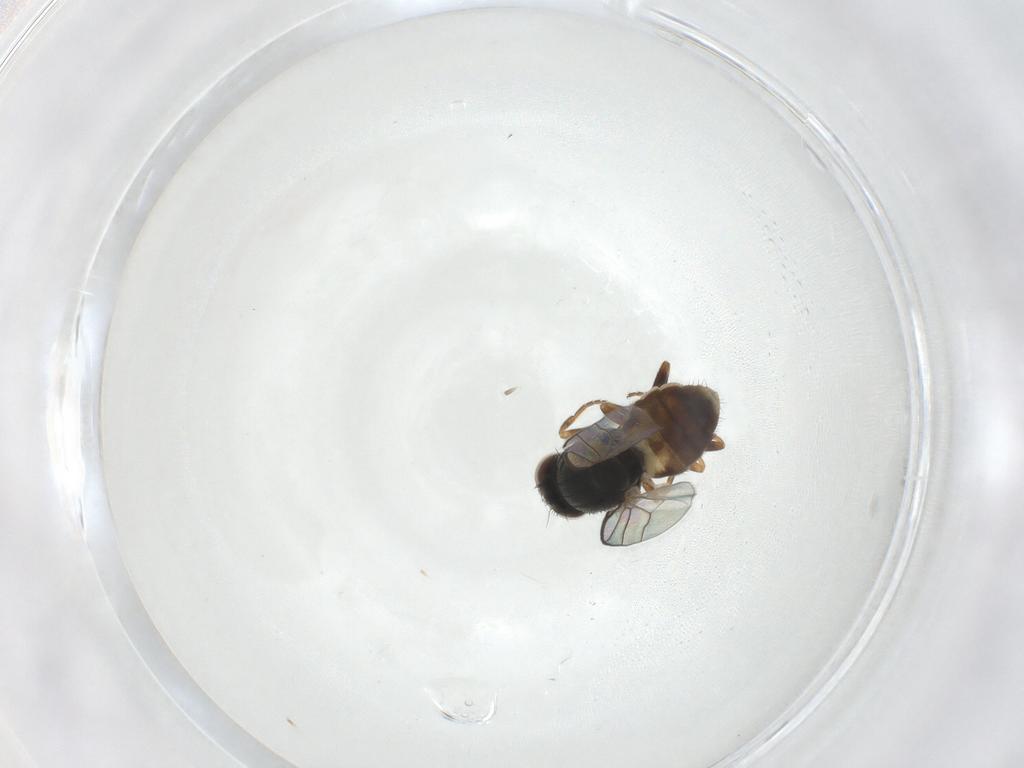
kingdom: Animalia
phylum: Arthropoda
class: Insecta
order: Diptera
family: Chloropidae
